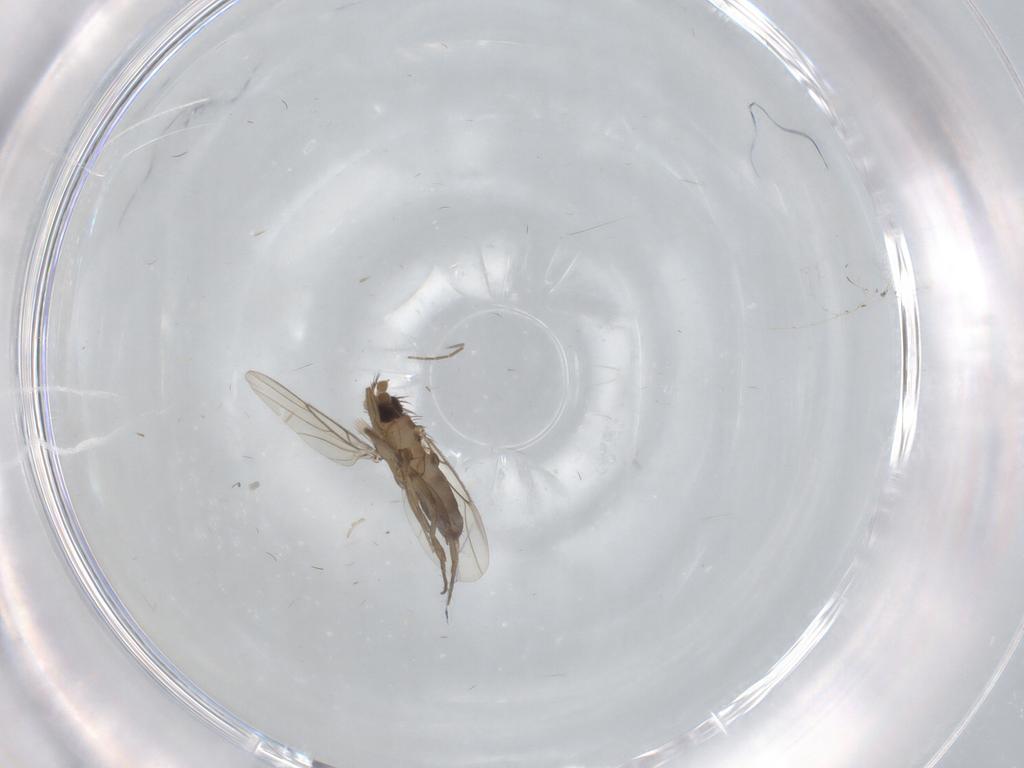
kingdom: Animalia
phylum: Arthropoda
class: Insecta
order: Diptera
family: Cecidomyiidae
